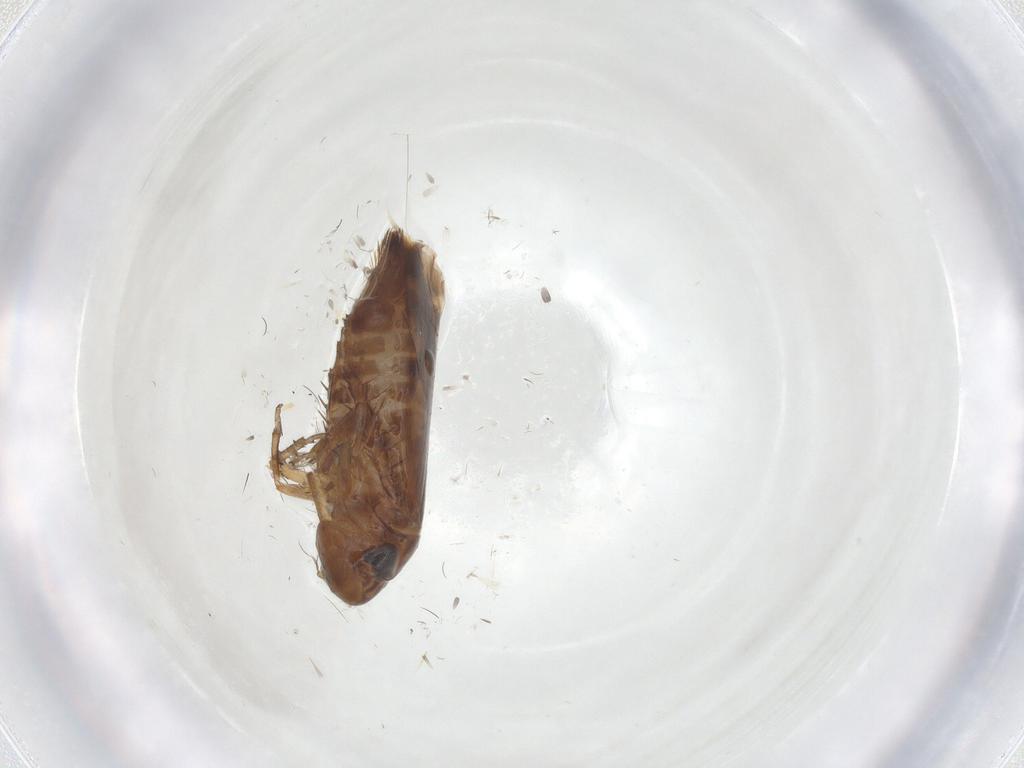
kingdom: Animalia
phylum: Arthropoda
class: Insecta
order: Hemiptera
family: Cicadellidae
